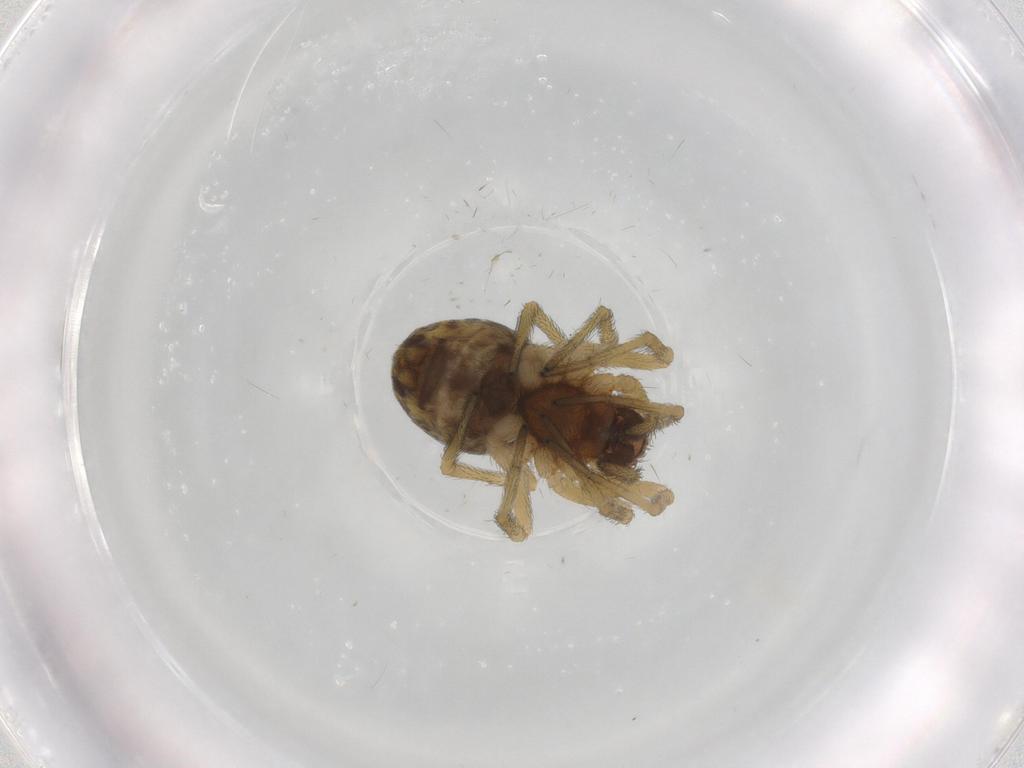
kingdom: Animalia
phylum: Arthropoda
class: Arachnida
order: Araneae
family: Dictynidae
